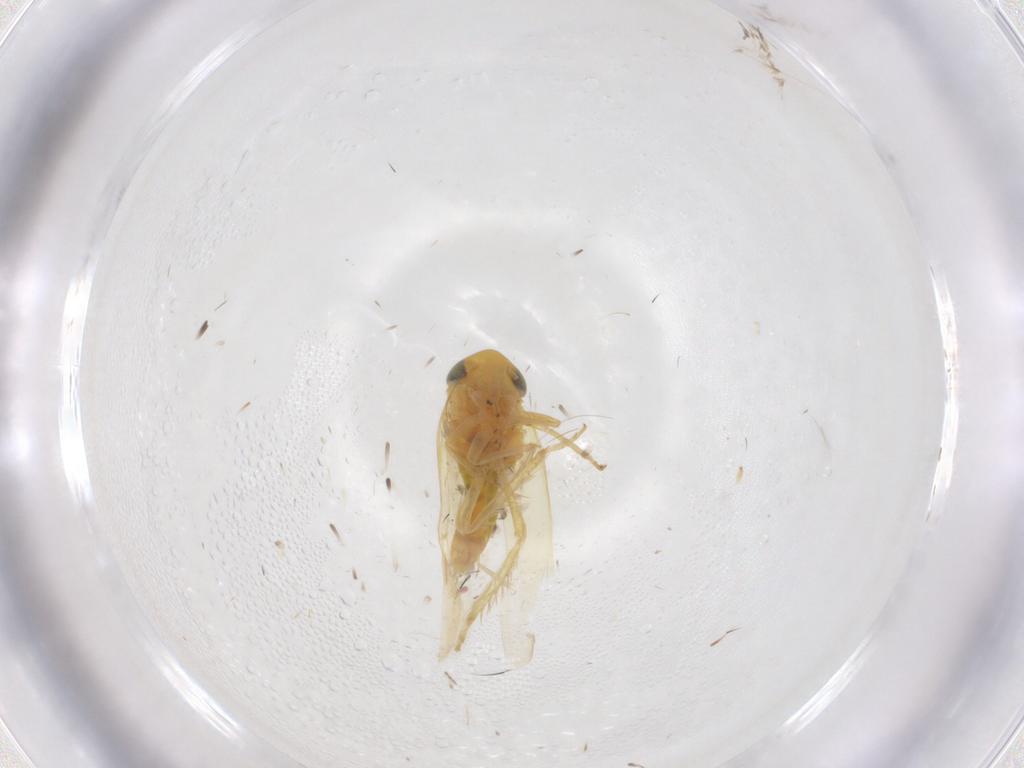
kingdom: Animalia
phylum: Arthropoda
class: Insecta
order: Hemiptera
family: Cicadellidae
